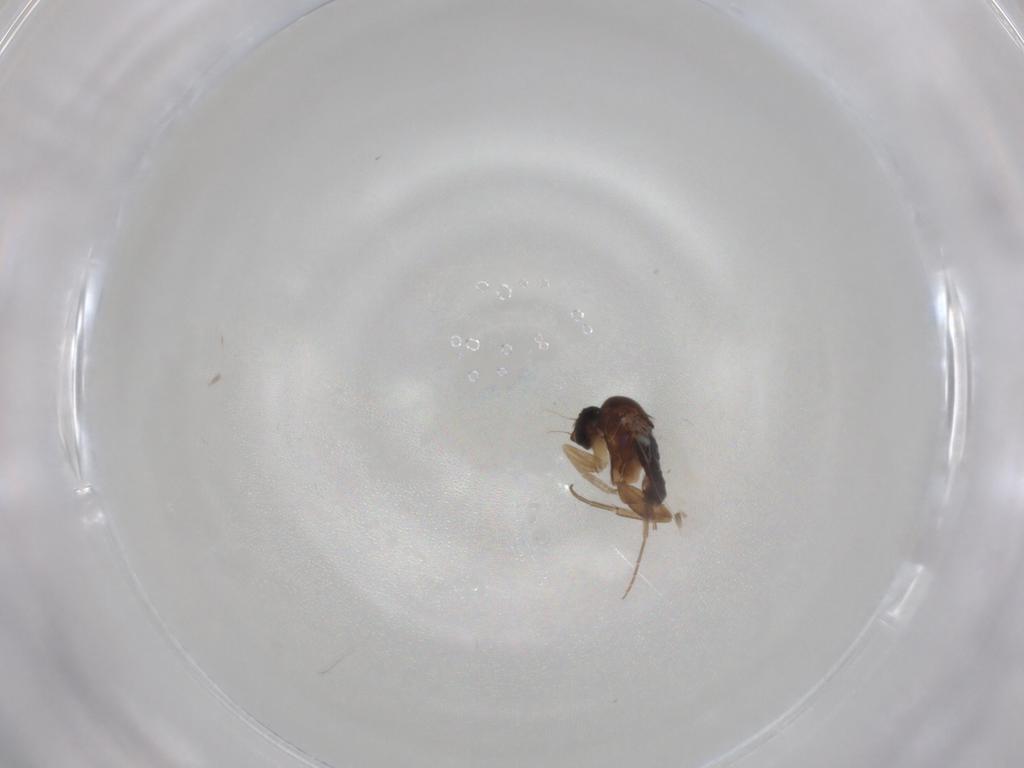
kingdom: Animalia
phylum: Arthropoda
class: Insecta
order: Diptera
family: Phoridae
